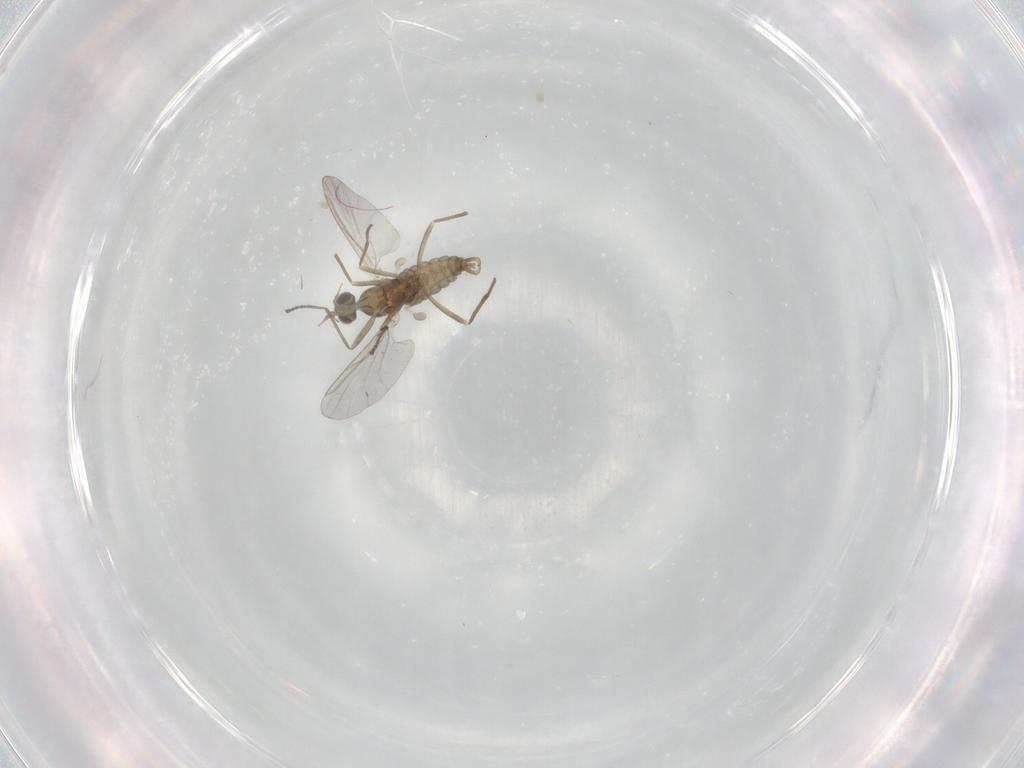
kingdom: Animalia
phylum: Arthropoda
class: Insecta
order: Diptera
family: Cecidomyiidae
